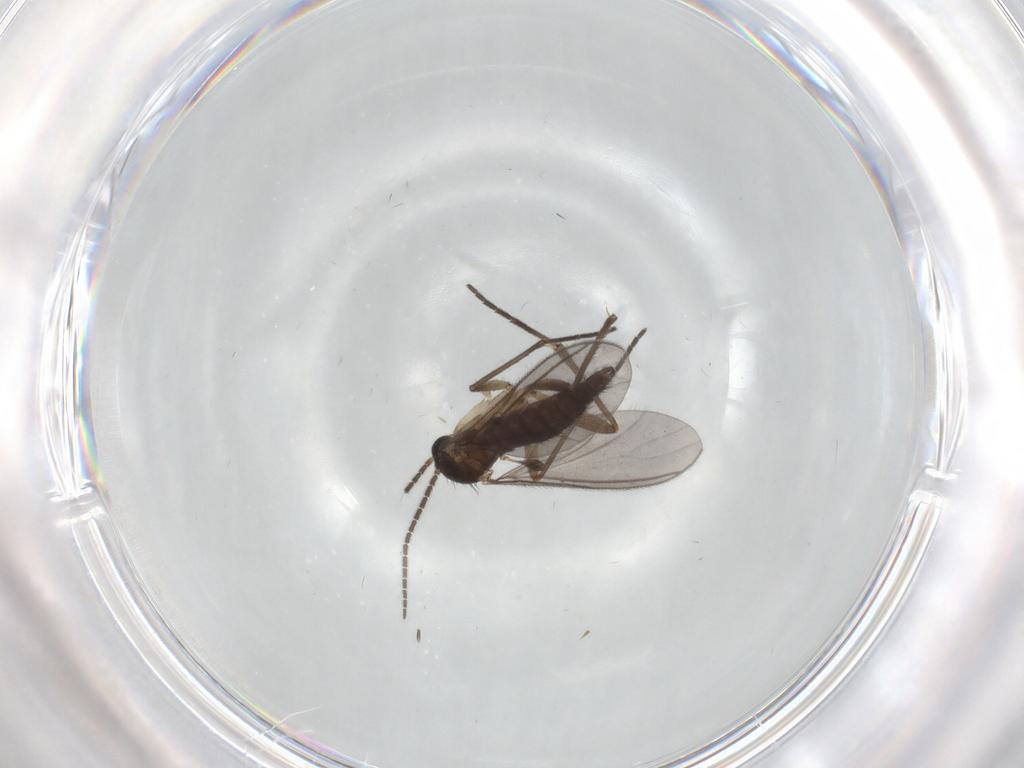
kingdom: Animalia
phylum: Arthropoda
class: Insecta
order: Diptera
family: Sciaridae
